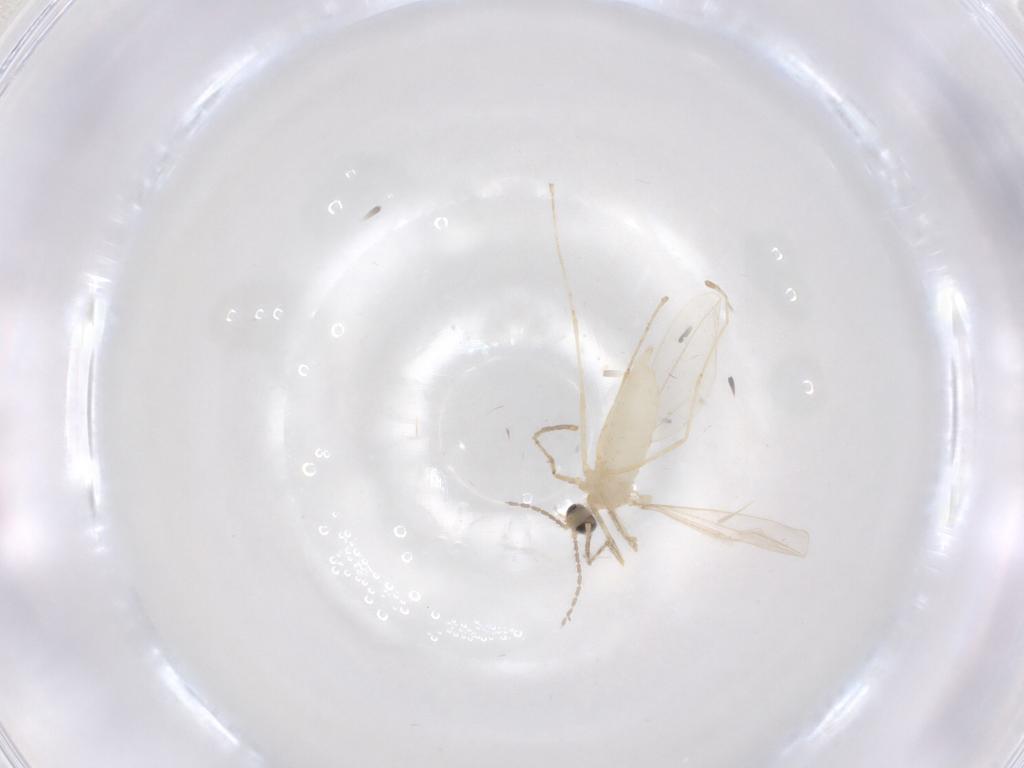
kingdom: Animalia
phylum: Arthropoda
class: Insecta
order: Diptera
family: Cecidomyiidae
